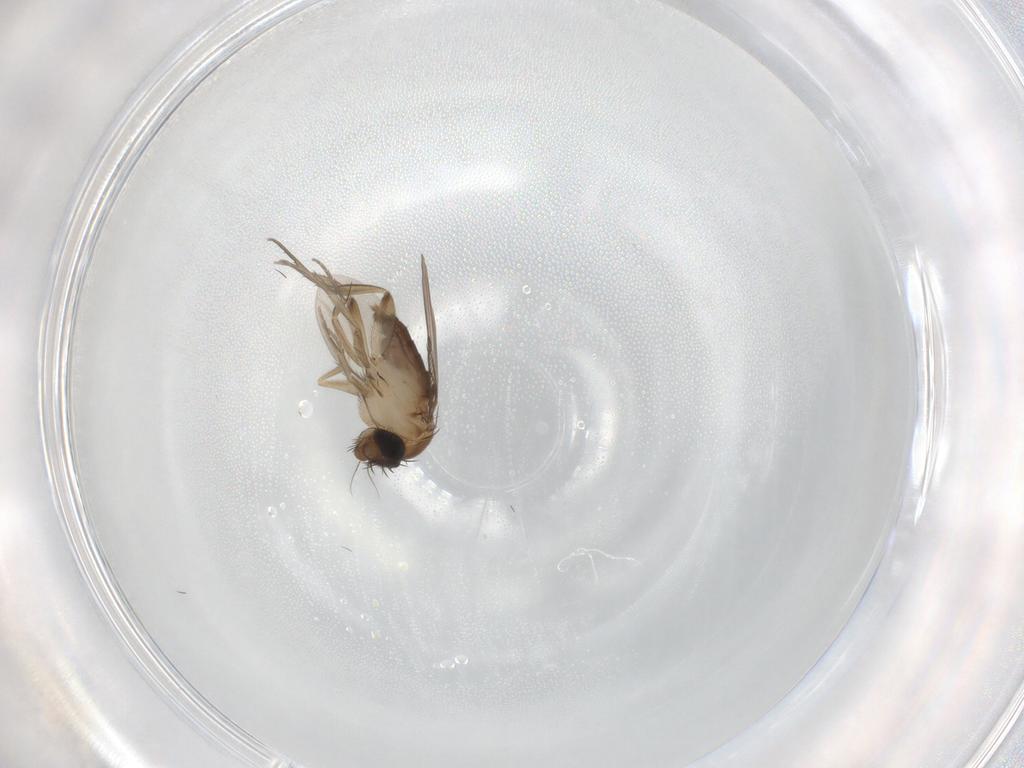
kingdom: Animalia
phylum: Arthropoda
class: Insecta
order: Diptera
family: Phoridae
